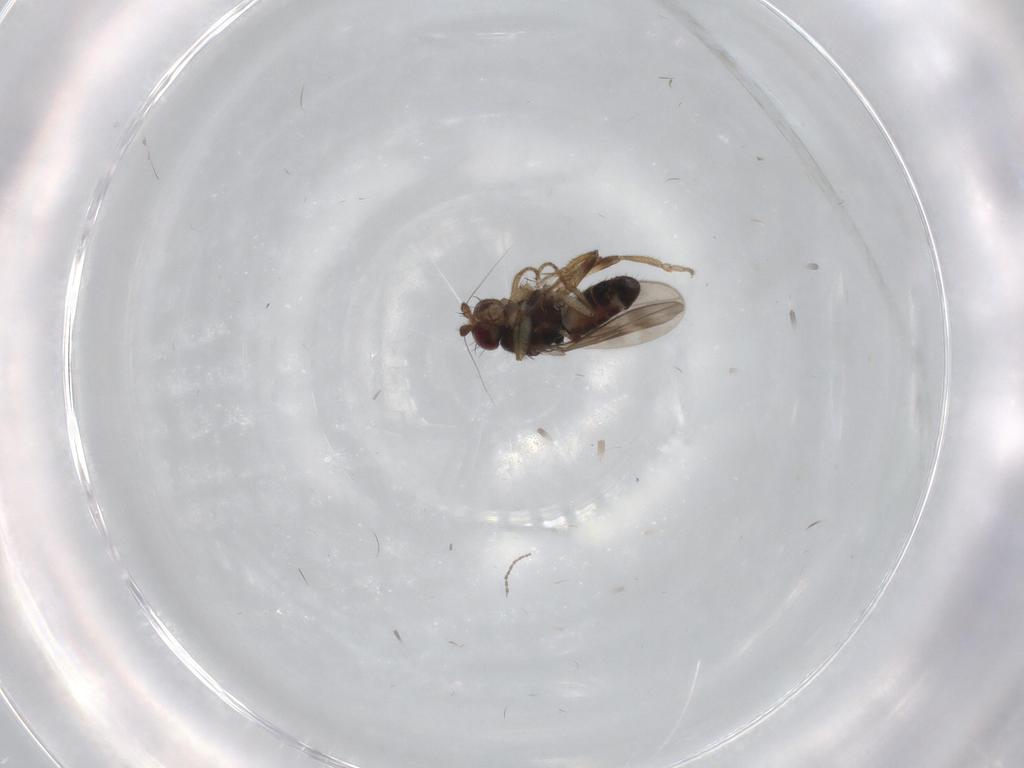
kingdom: Animalia
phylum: Arthropoda
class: Insecta
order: Diptera
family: Sphaeroceridae
